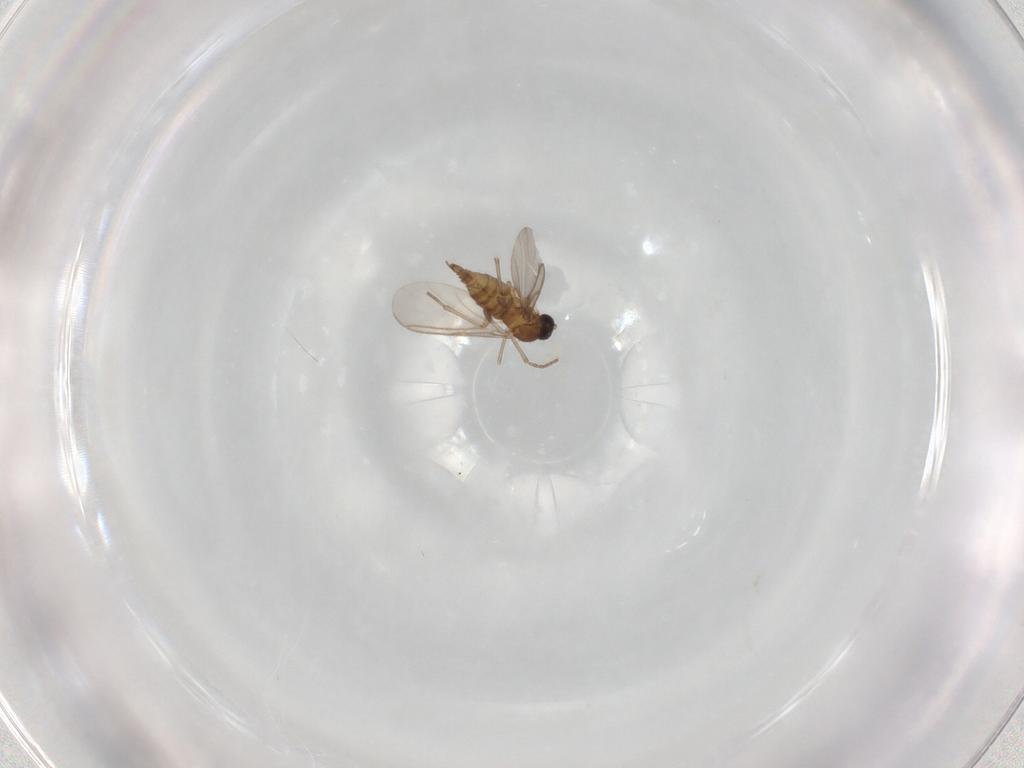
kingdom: Animalia
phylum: Arthropoda
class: Insecta
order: Diptera
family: Sciaridae
